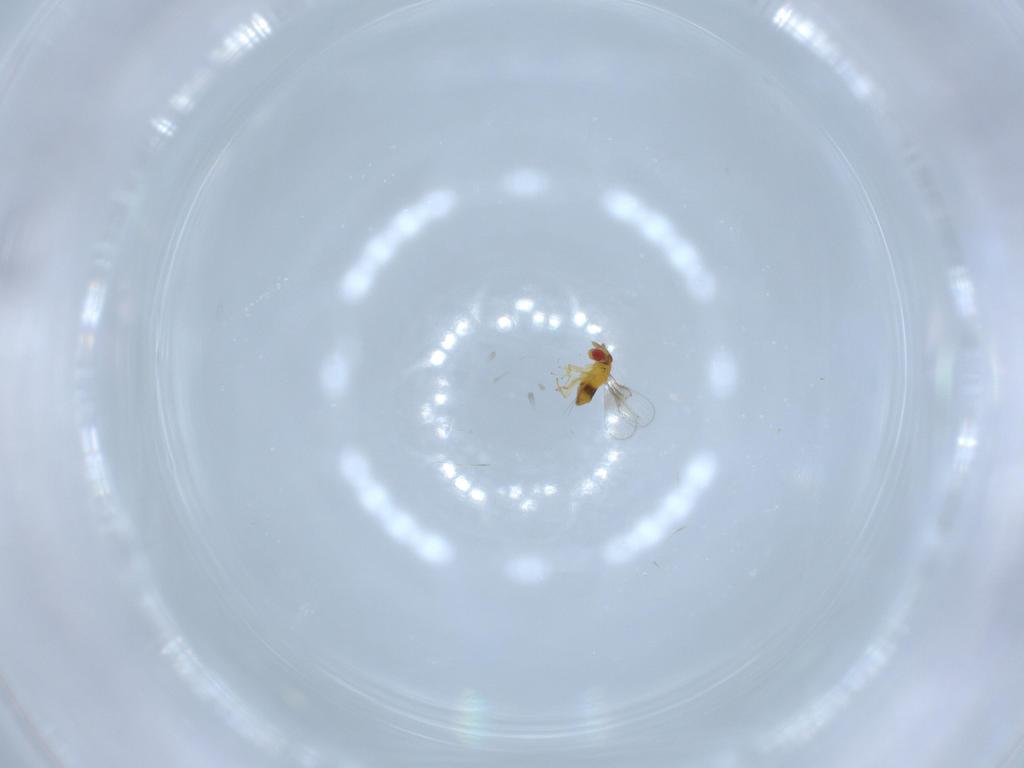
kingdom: Animalia
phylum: Arthropoda
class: Insecta
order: Hymenoptera
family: Trichogrammatidae
